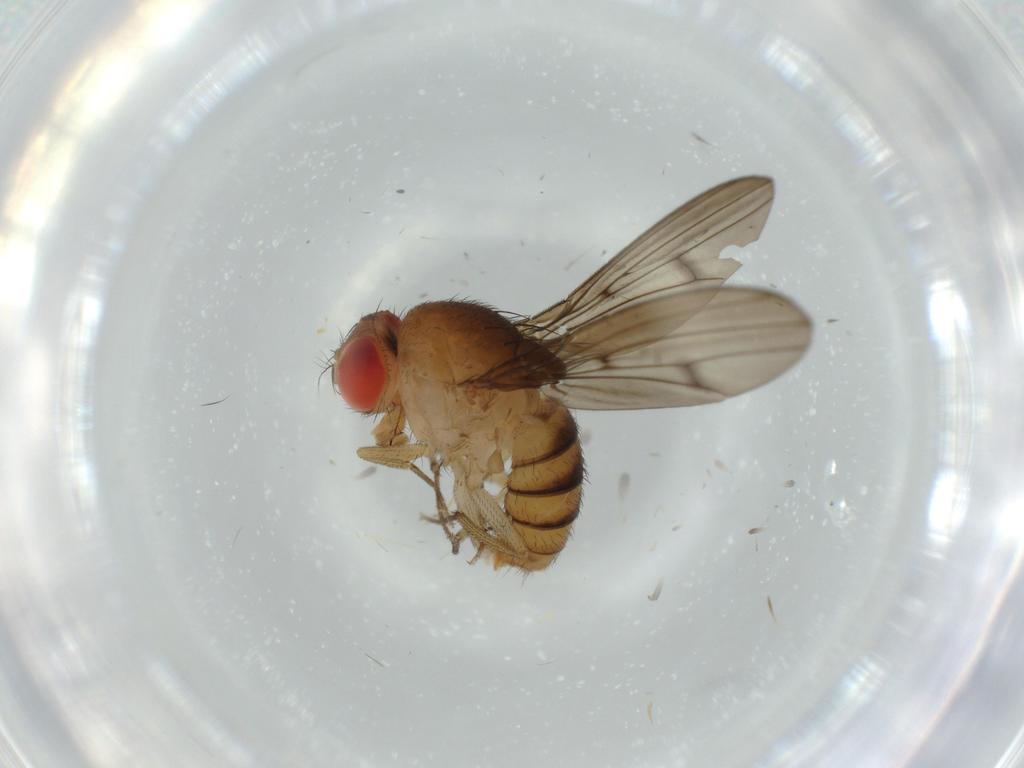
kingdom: Animalia
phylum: Arthropoda
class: Insecta
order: Diptera
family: Drosophilidae
